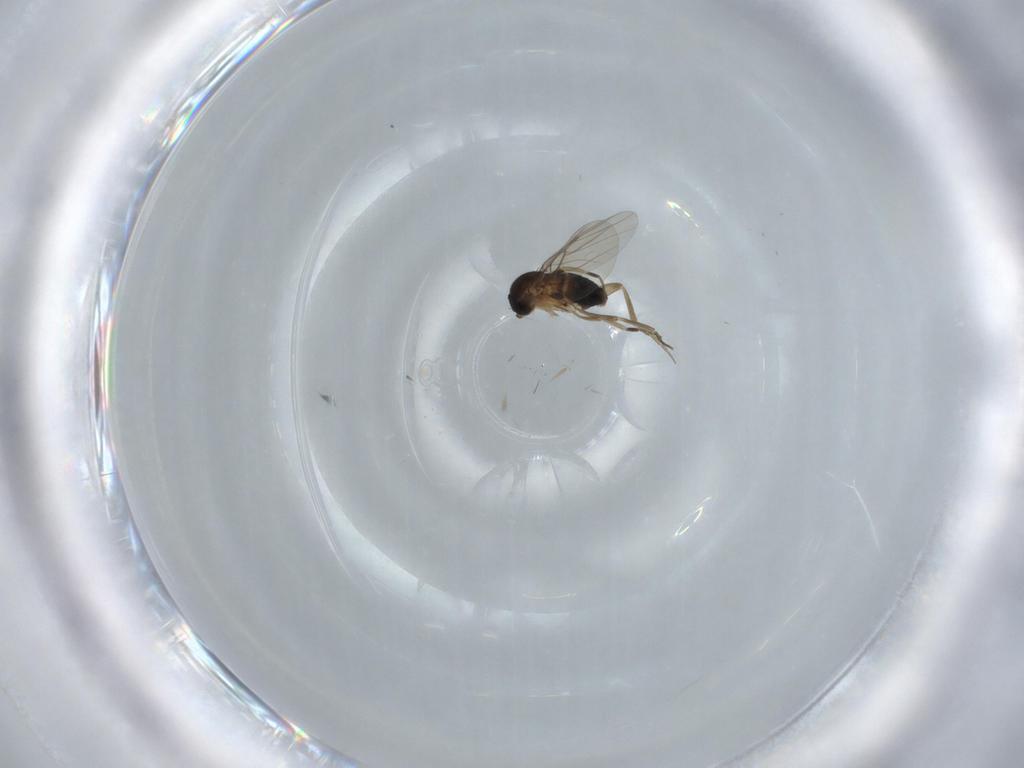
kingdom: Animalia
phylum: Arthropoda
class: Insecta
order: Diptera
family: Phoridae
